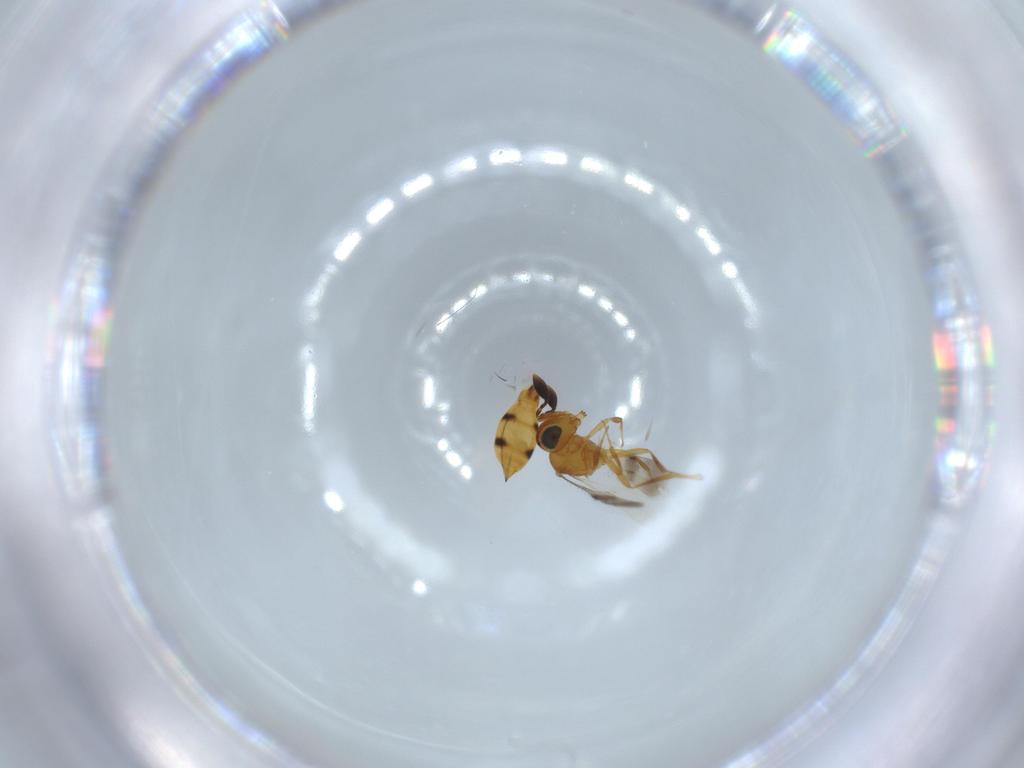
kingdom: Animalia
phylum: Arthropoda
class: Insecta
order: Hymenoptera
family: Scelionidae
